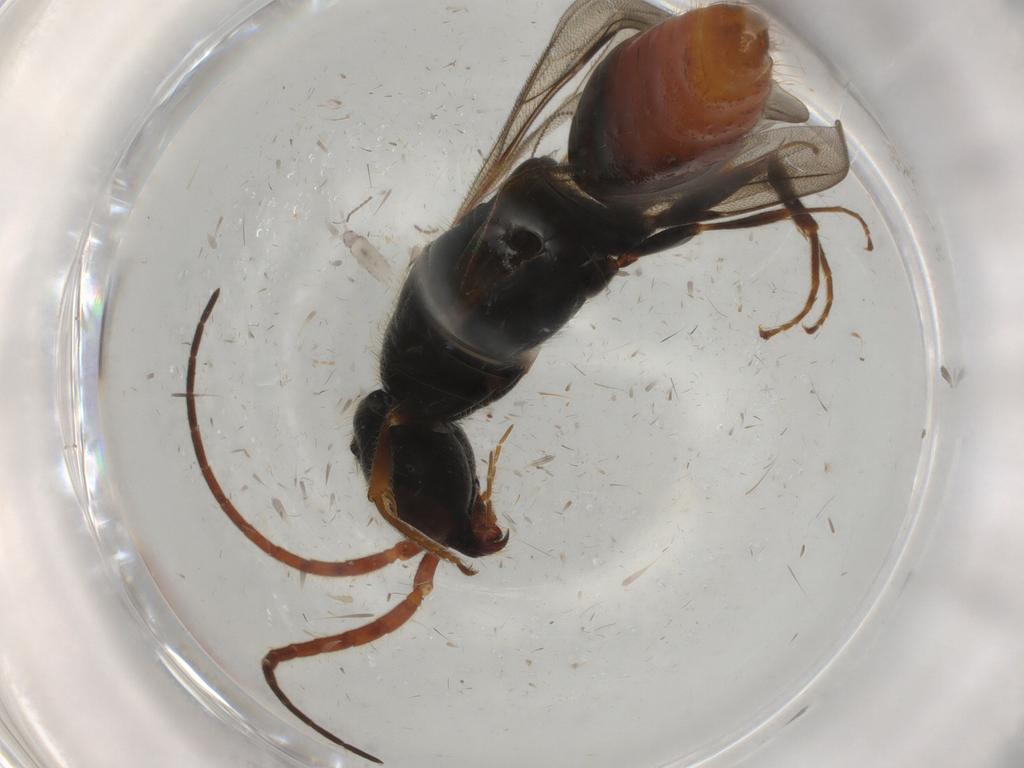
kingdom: Animalia
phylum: Arthropoda
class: Insecta
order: Hymenoptera
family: Bethylidae
